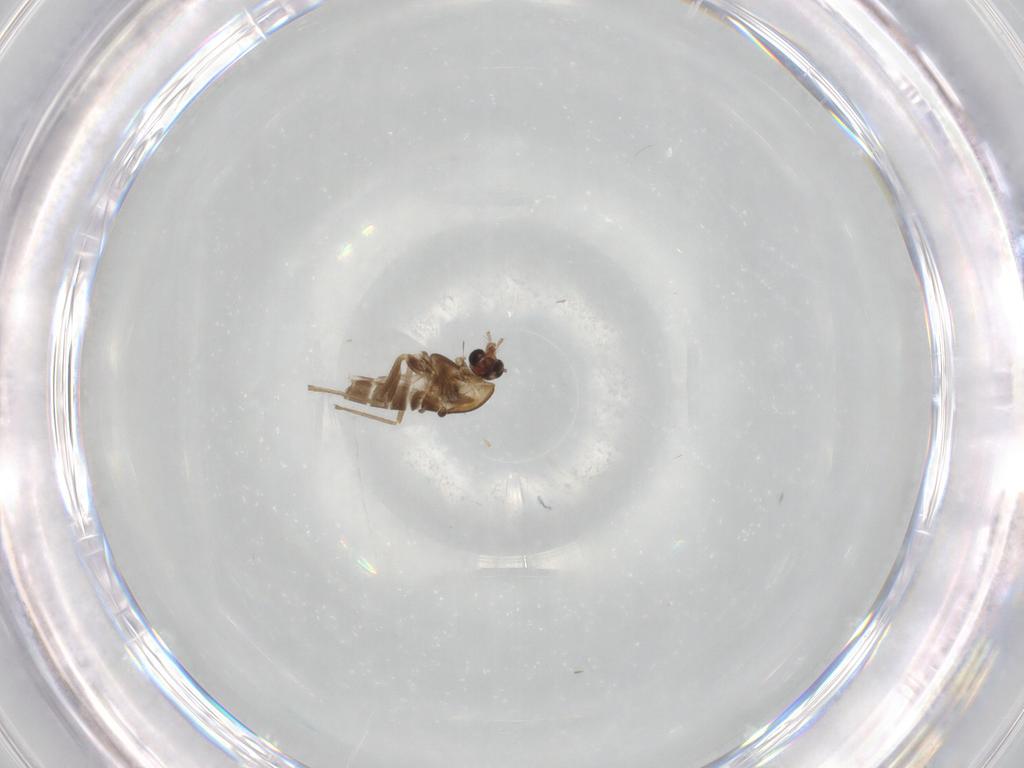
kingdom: Animalia
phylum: Arthropoda
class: Insecta
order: Diptera
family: Chironomidae
